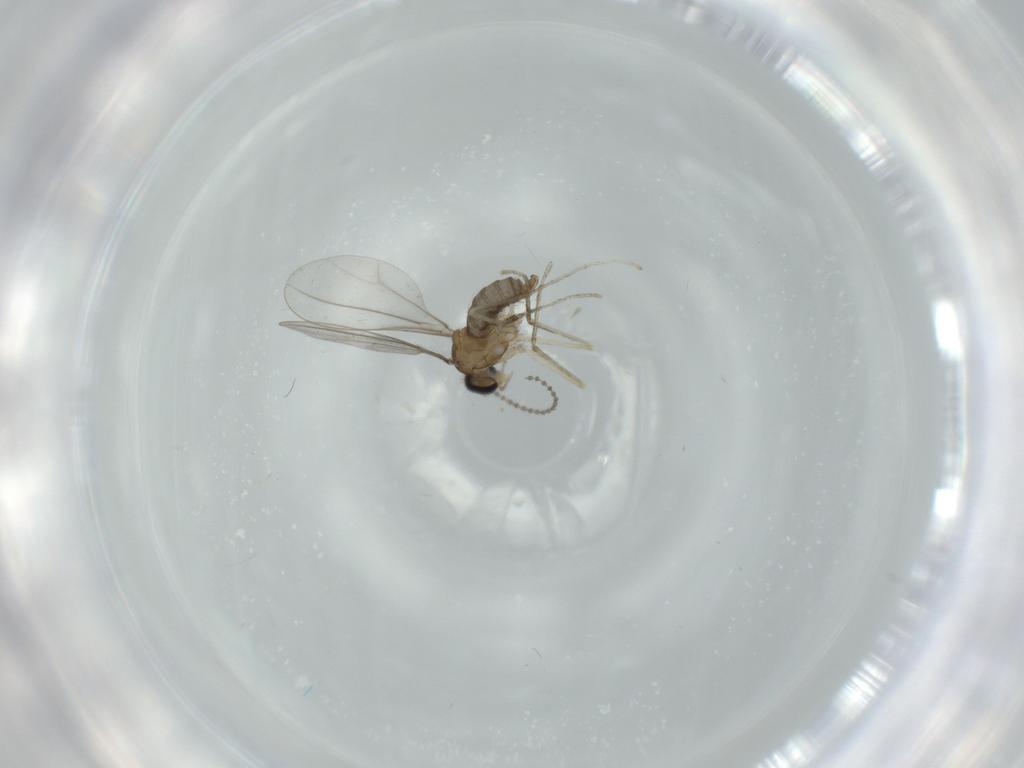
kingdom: Animalia
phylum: Arthropoda
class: Insecta
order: Diptera
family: Cecidomyiidae
